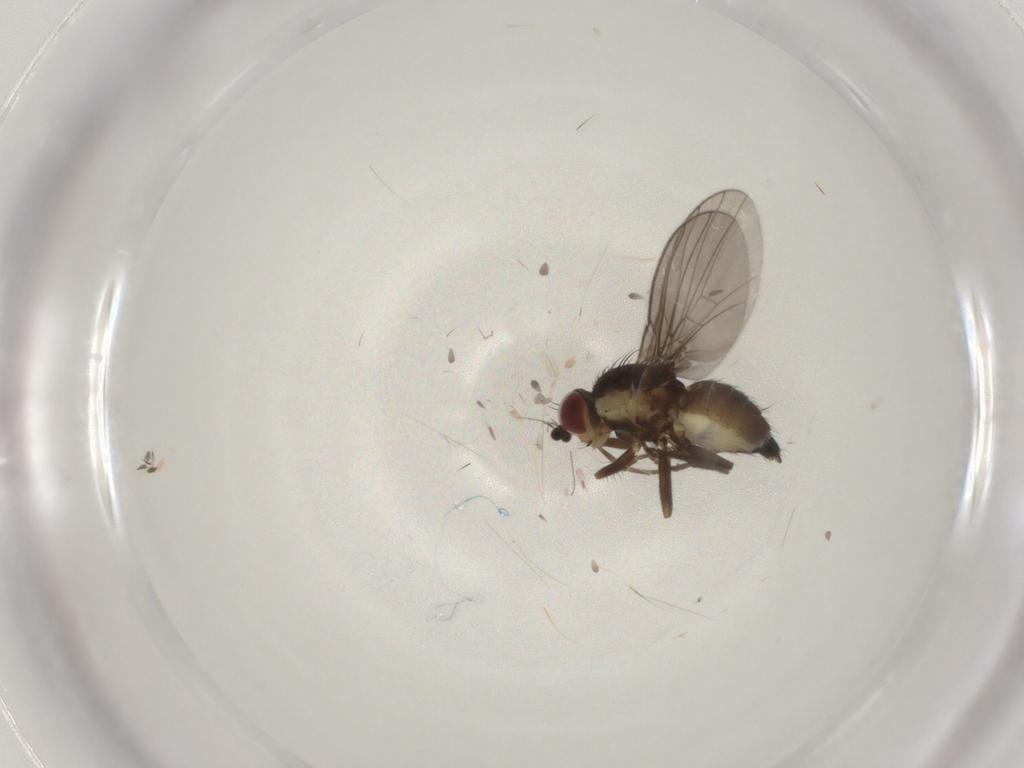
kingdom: Animalia
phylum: Arthropoda
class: Insecta
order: Diptera
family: Agromyzidae
